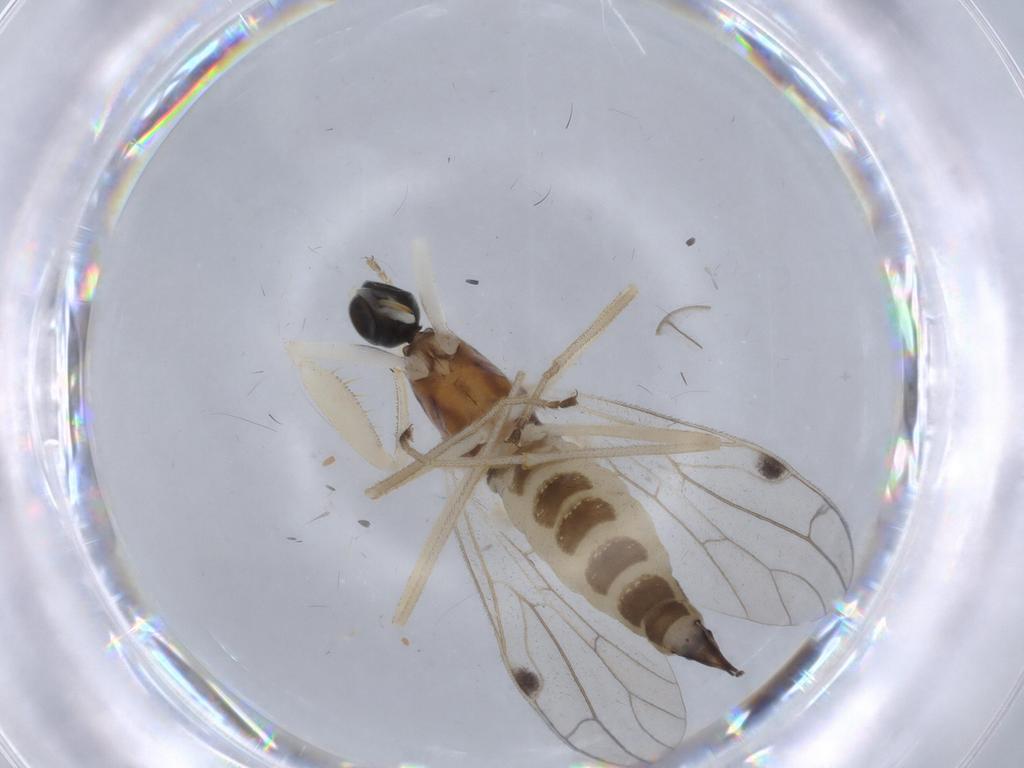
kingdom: Animalia
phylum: Arthropoda
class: Insecta
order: Diptera
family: Empididae
